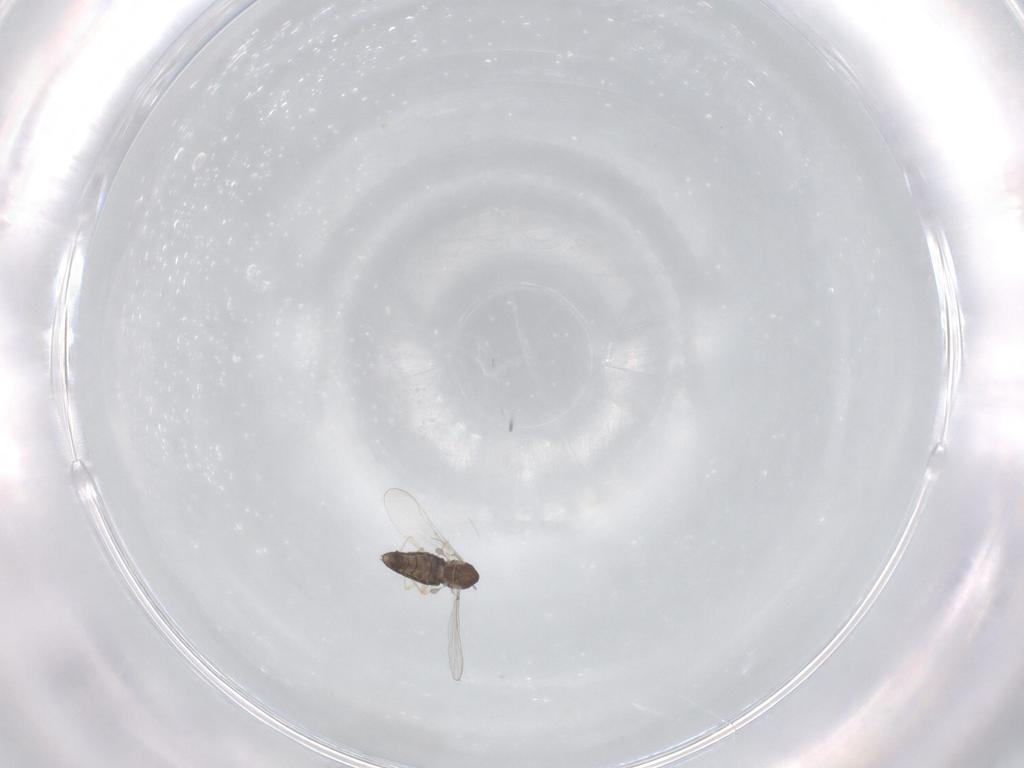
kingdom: Animalia
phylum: Arthropoda
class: Insecta
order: Diptera
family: Sciaridae
